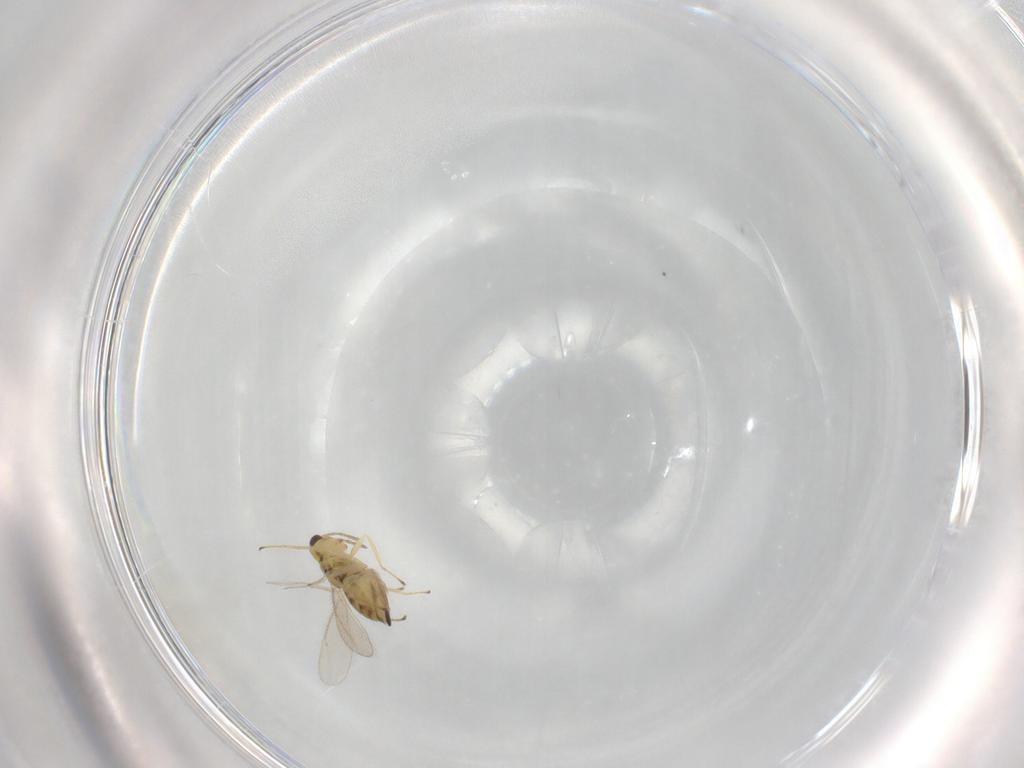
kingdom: Animalia
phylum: Arthropoda
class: Insecta
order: Hymenoptera
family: Eulophidae
